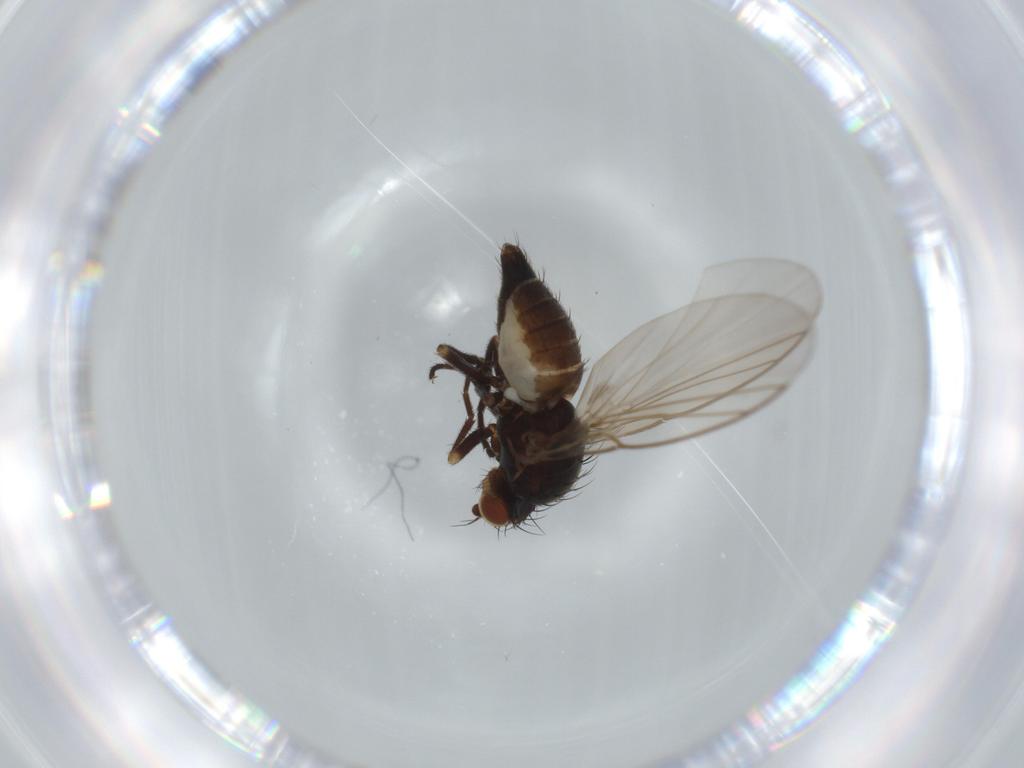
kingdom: Animalia
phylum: Arthropoda
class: Insecta
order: Diptera
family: Agromyzidae
